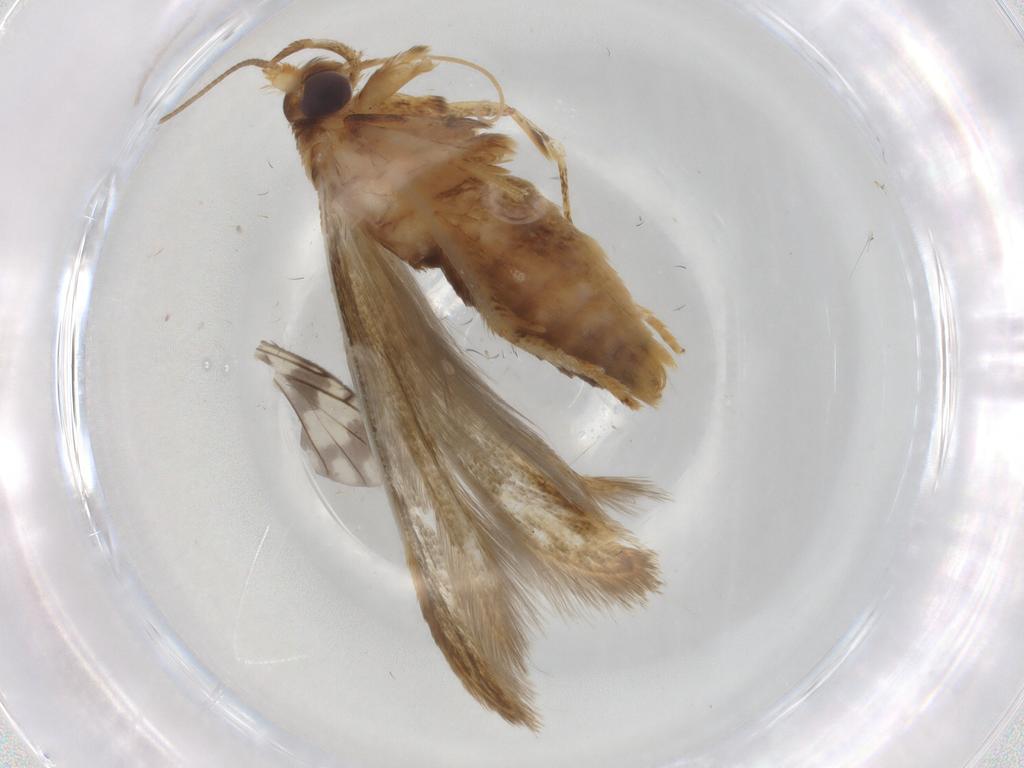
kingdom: Animalia
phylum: Arthropoda
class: Insecta
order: Lepidoptera
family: Blastobasidae
